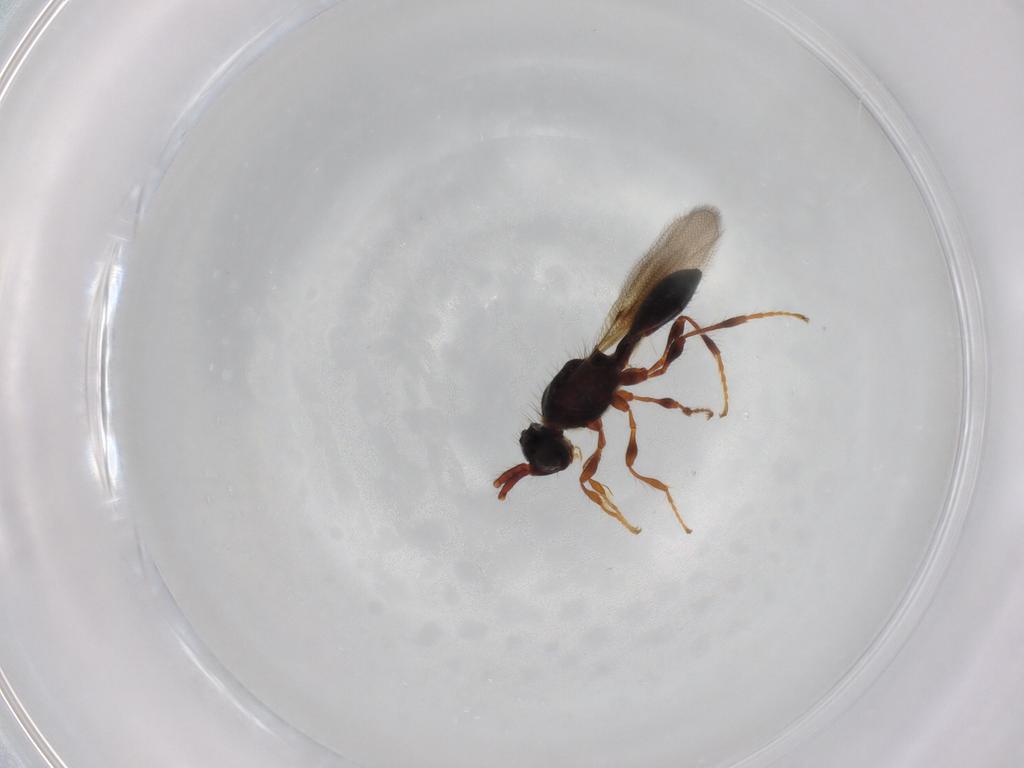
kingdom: Animalia
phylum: Arthropoda
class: Insecta
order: Hymenoptera
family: Diapriidae
